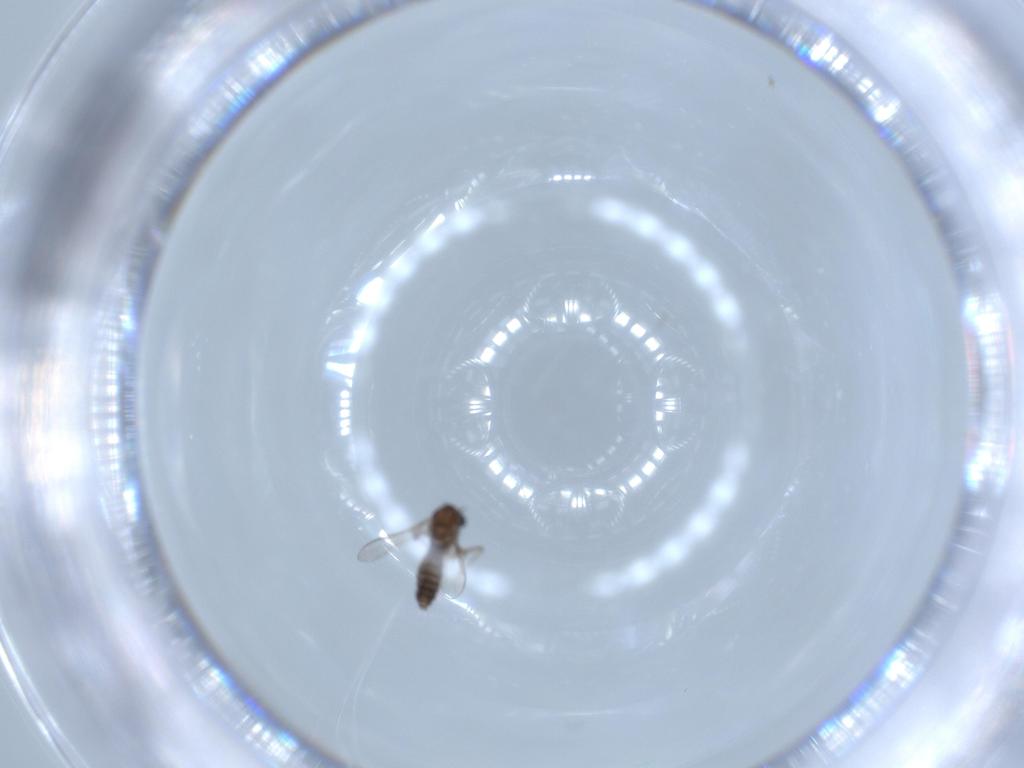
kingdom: Animalia
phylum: Arthropoda
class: Insecta
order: Diptera
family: Chironomidae
